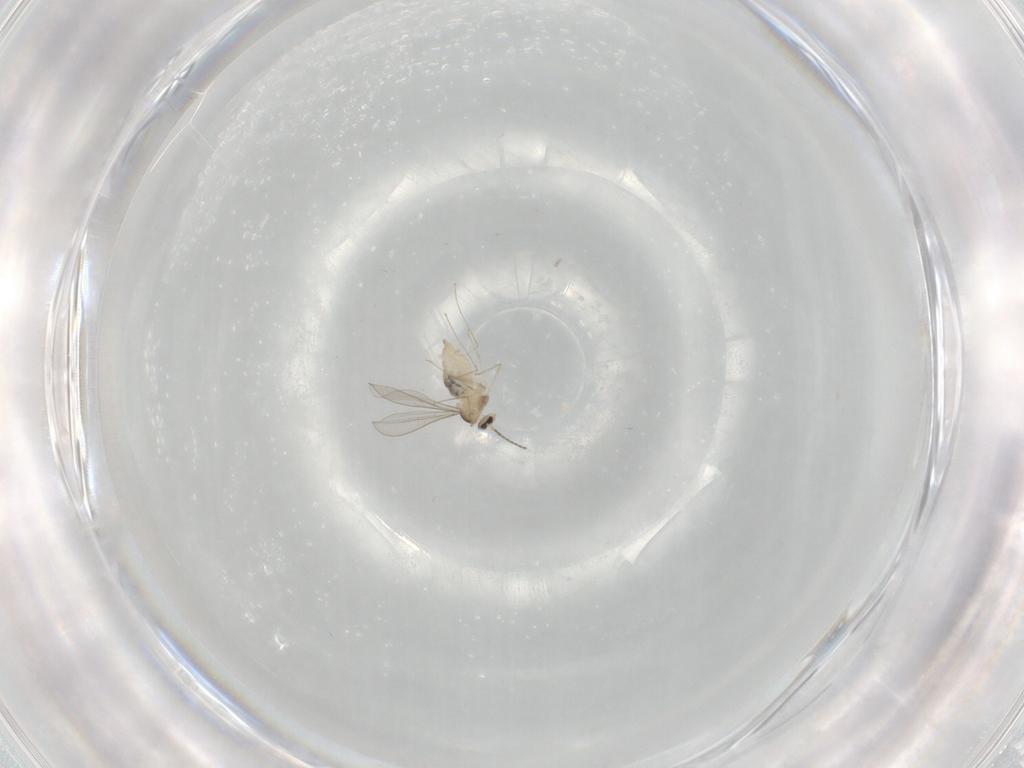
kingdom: Animalia
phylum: Arthropoda
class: Insecta
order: Diptera
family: Cecidomyiidae
